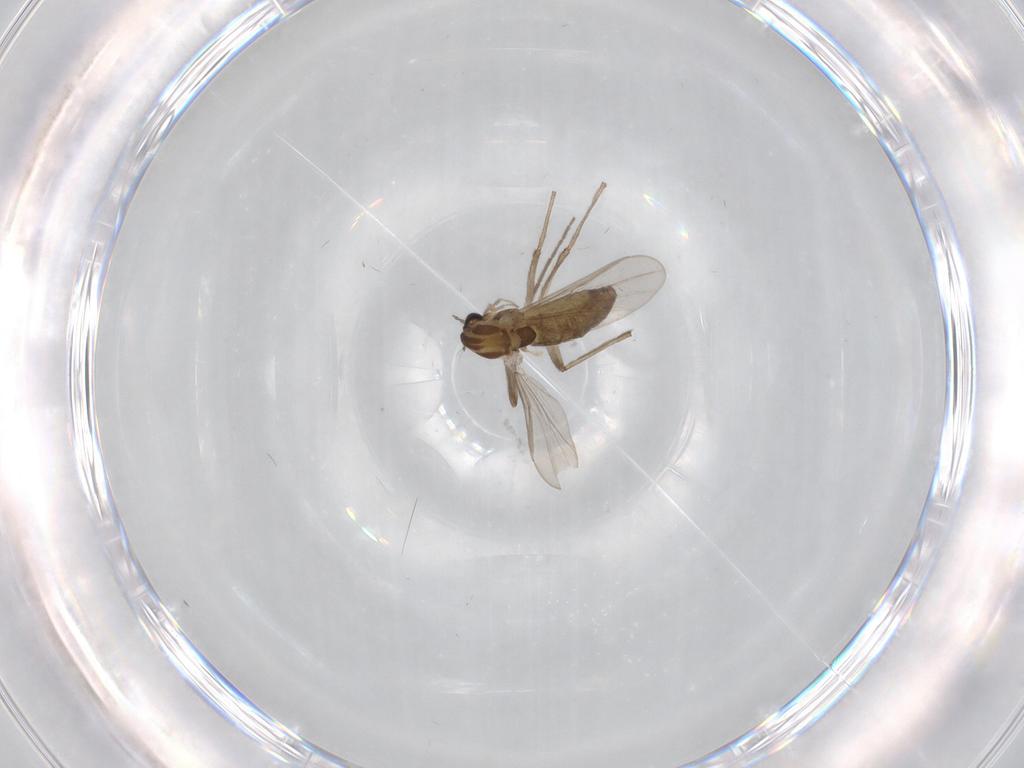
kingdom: Animalia
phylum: Arthropoda
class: Insecta
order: Diptera
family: Chironomidae
